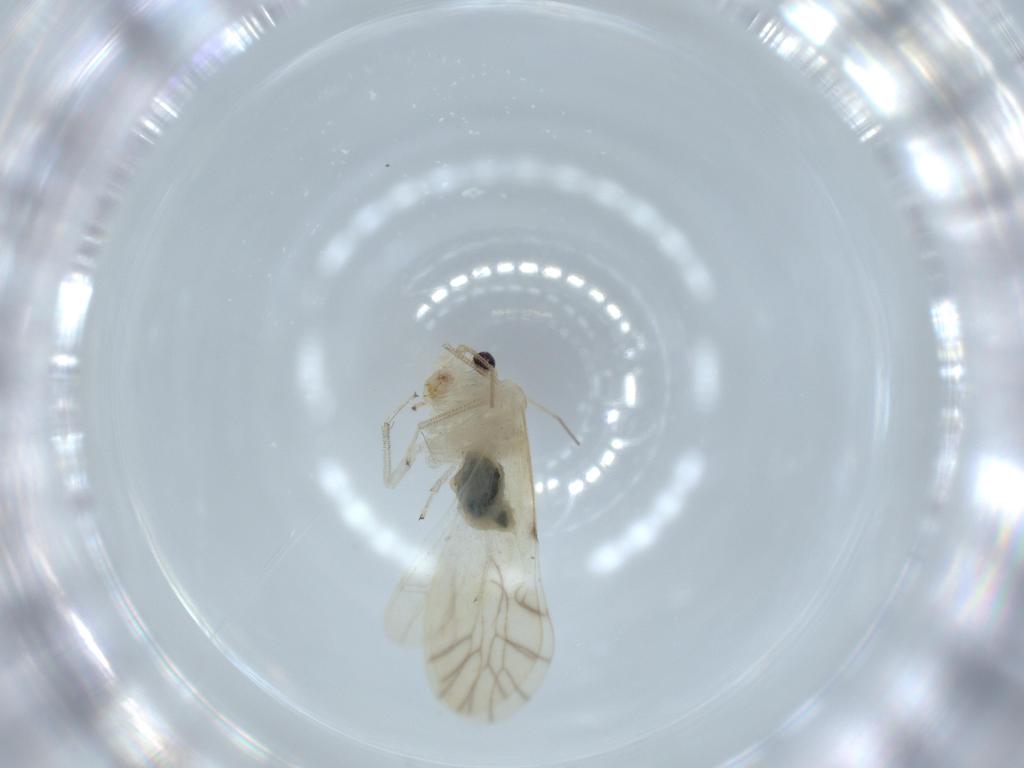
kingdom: Animalia
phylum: Arthropoda
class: Insecta
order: Psocodea
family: Caeciliusidae
